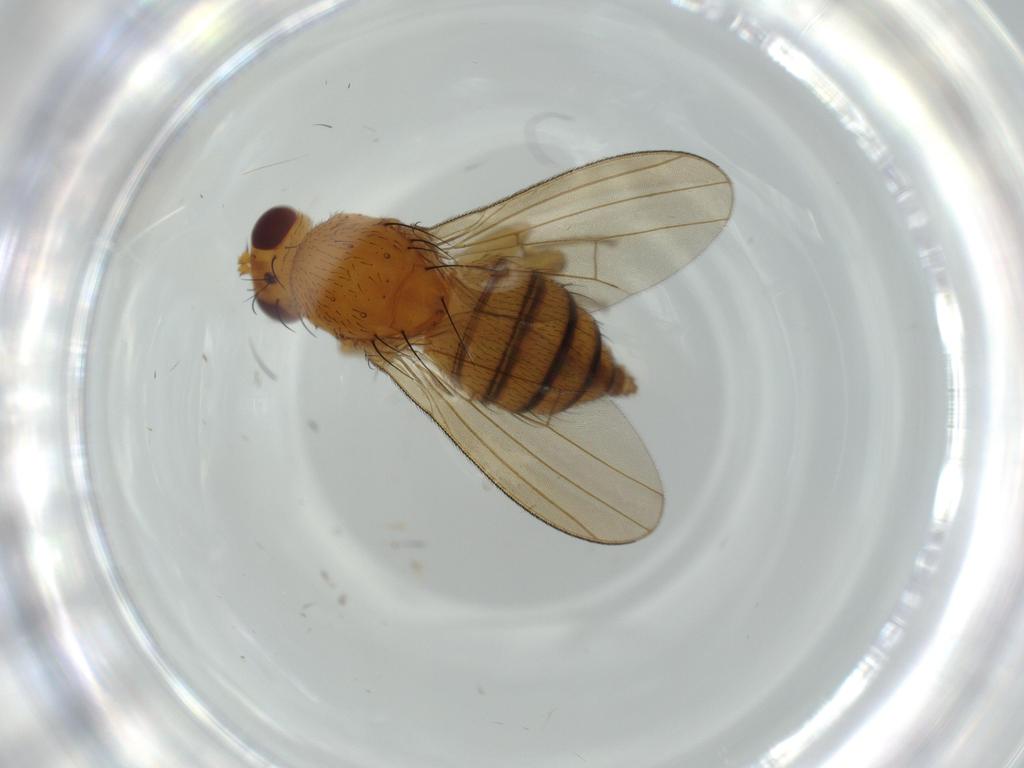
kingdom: Animalia
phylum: Arthropoda
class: Insecta
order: Diptera
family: Lauxaniidae
